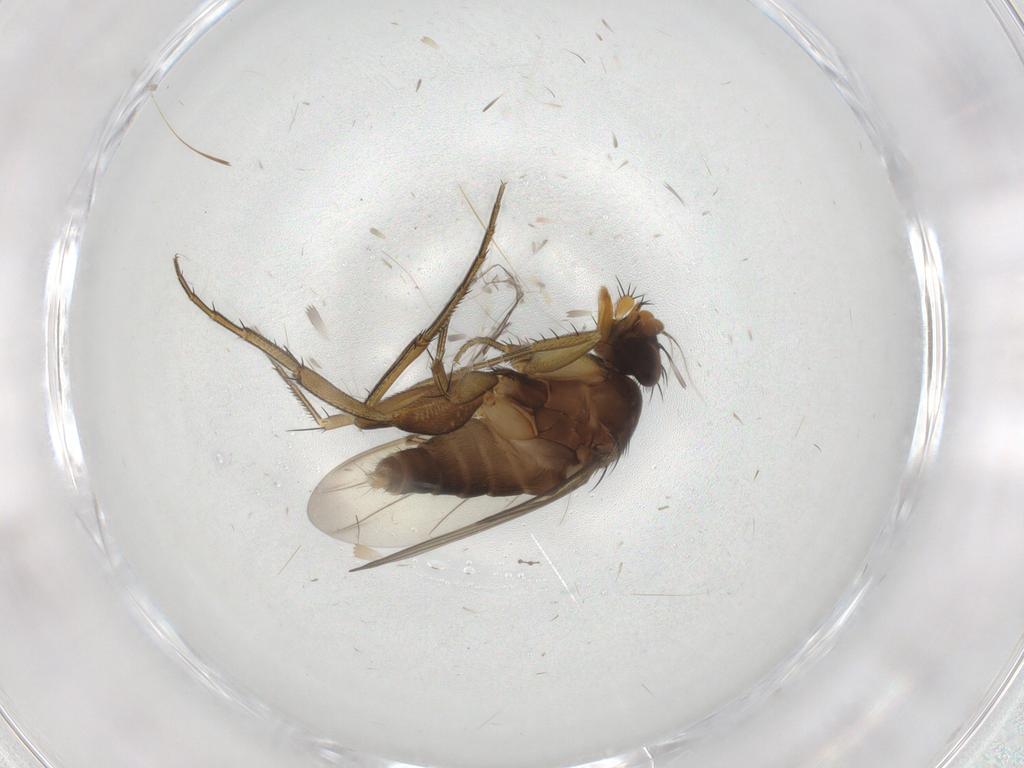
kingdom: Animalia
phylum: Arthropoda
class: Insecta
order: Diptera
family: Phoridae
